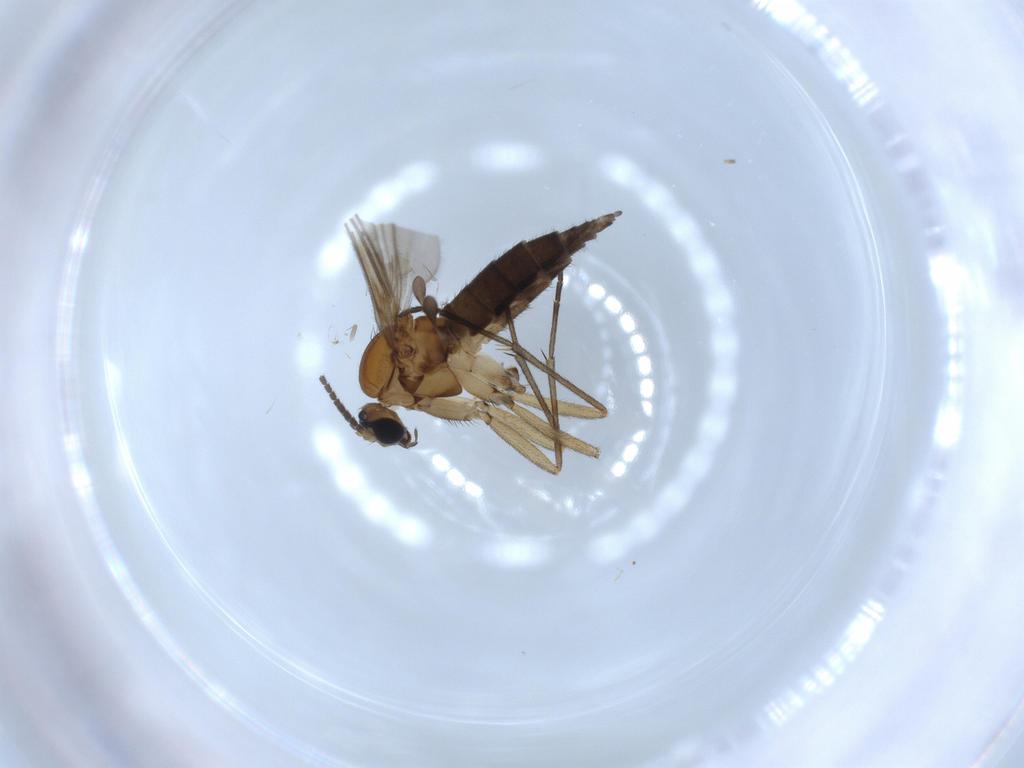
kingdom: Animalia
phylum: Arthropoda
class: Insecta
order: Diptera
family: Sciaridae
